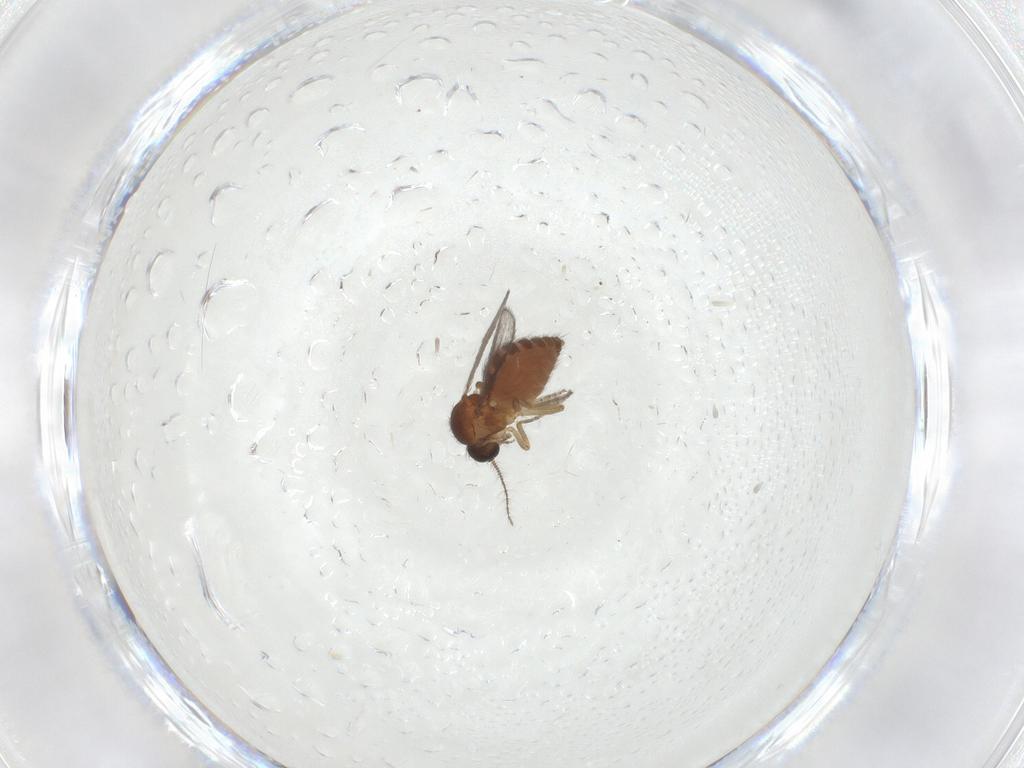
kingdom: Animalia
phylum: Arthropoda
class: Insecta
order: Diptera
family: Ceratopogonidae
